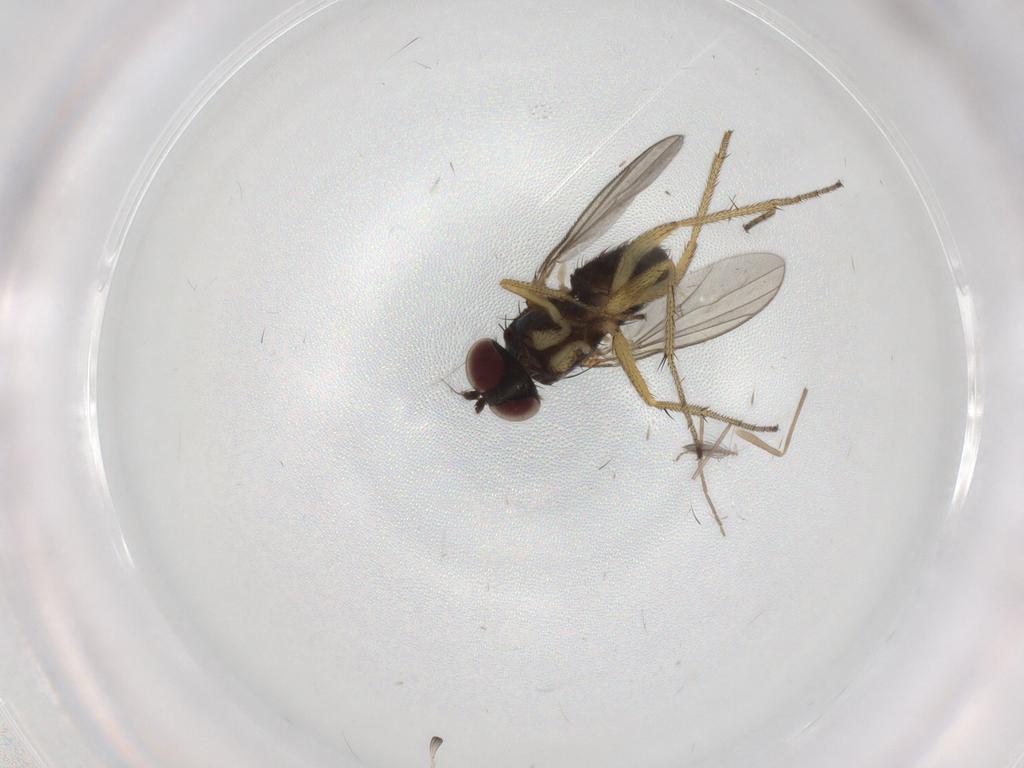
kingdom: Animalia
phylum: Arthropoda
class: Insecta
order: Diptera
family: Sciaridae
